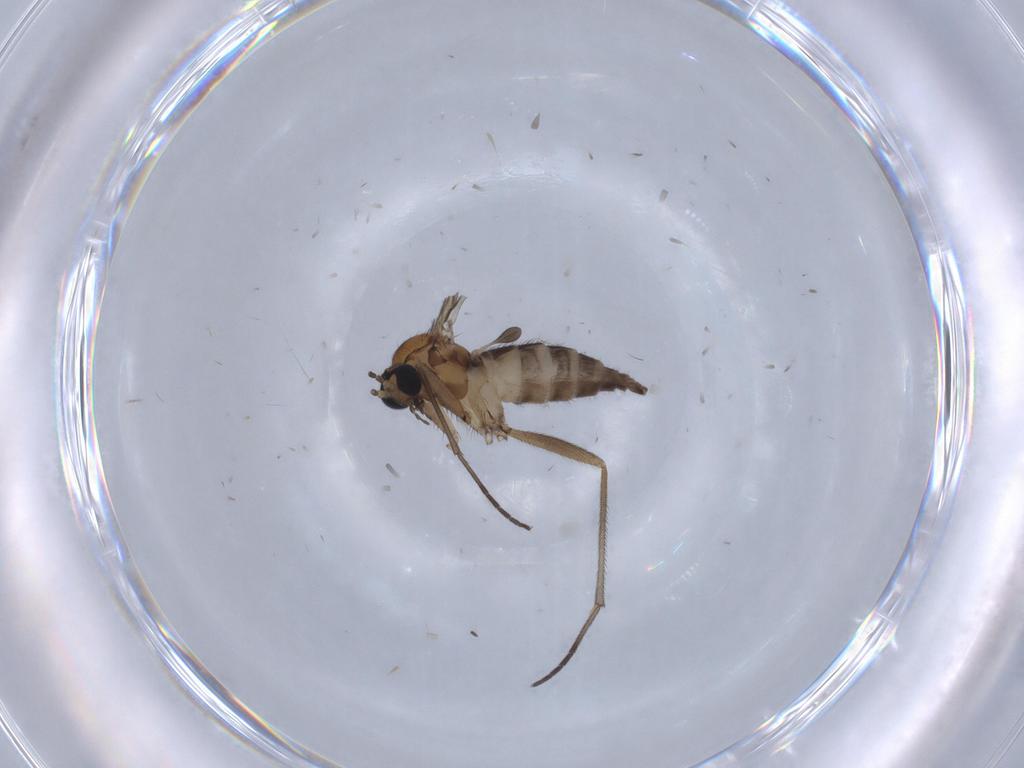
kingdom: Animalia
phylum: Arthropoda
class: Insecta
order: Diptera
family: Sciaridae
